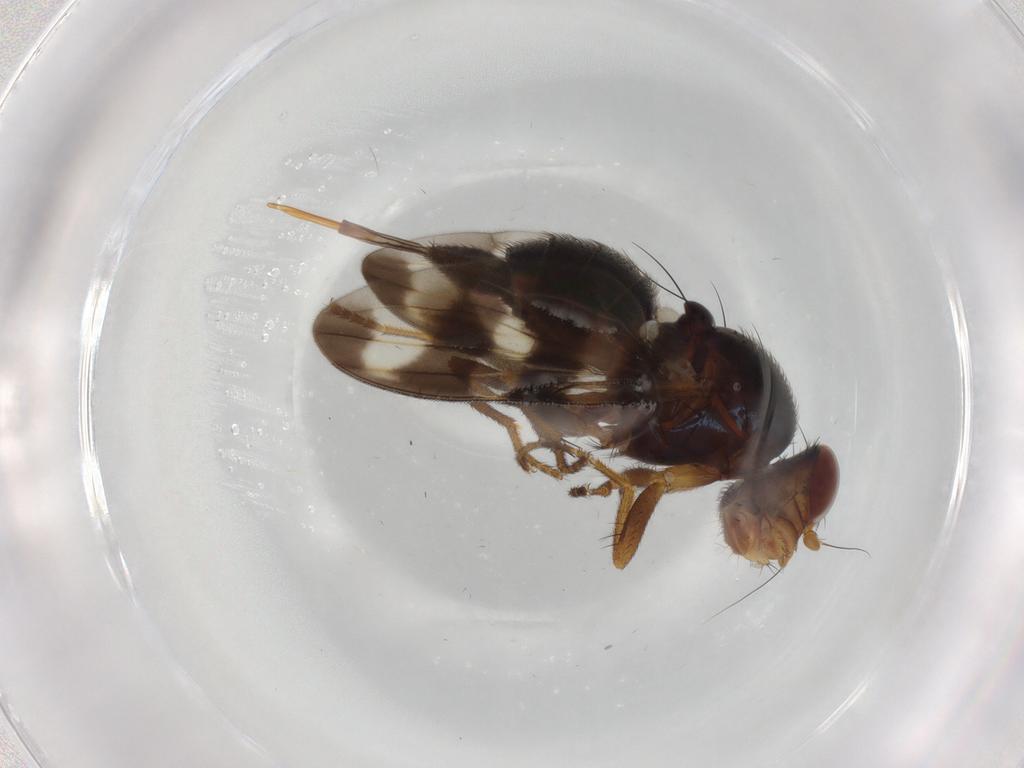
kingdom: Animalia
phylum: Arthropoda
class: Insecta
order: Diptera
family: Ulidiidae
